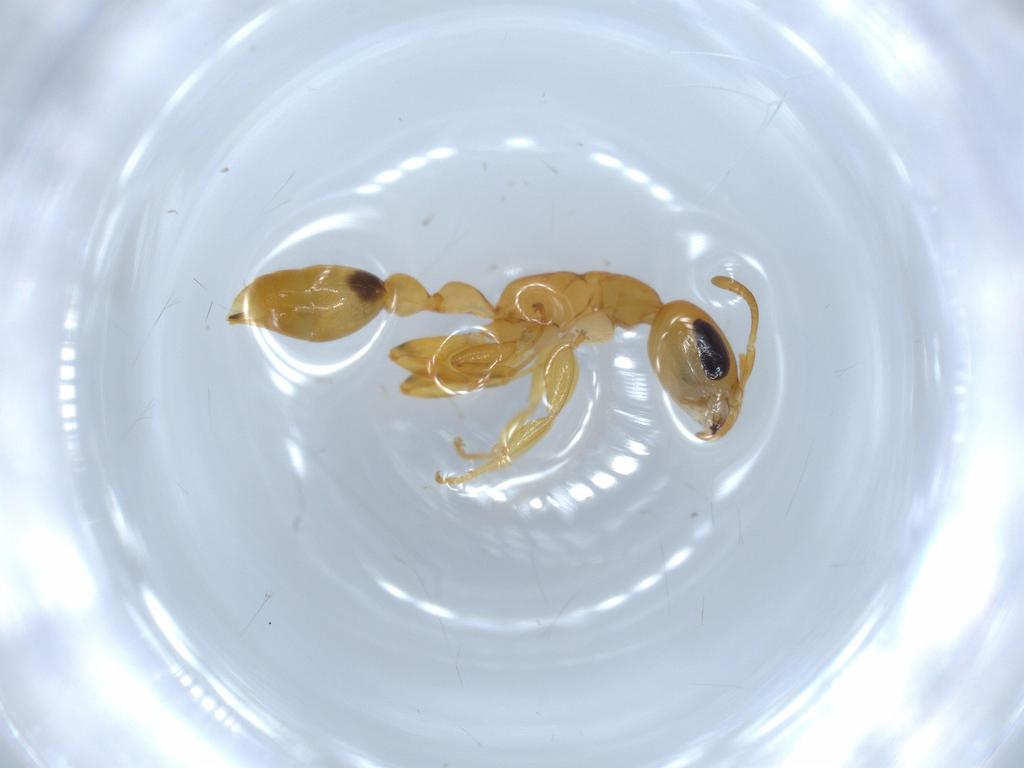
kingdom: Animalia
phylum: Arthropoda
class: Insecta
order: Hymenoptera
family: Formicidae
